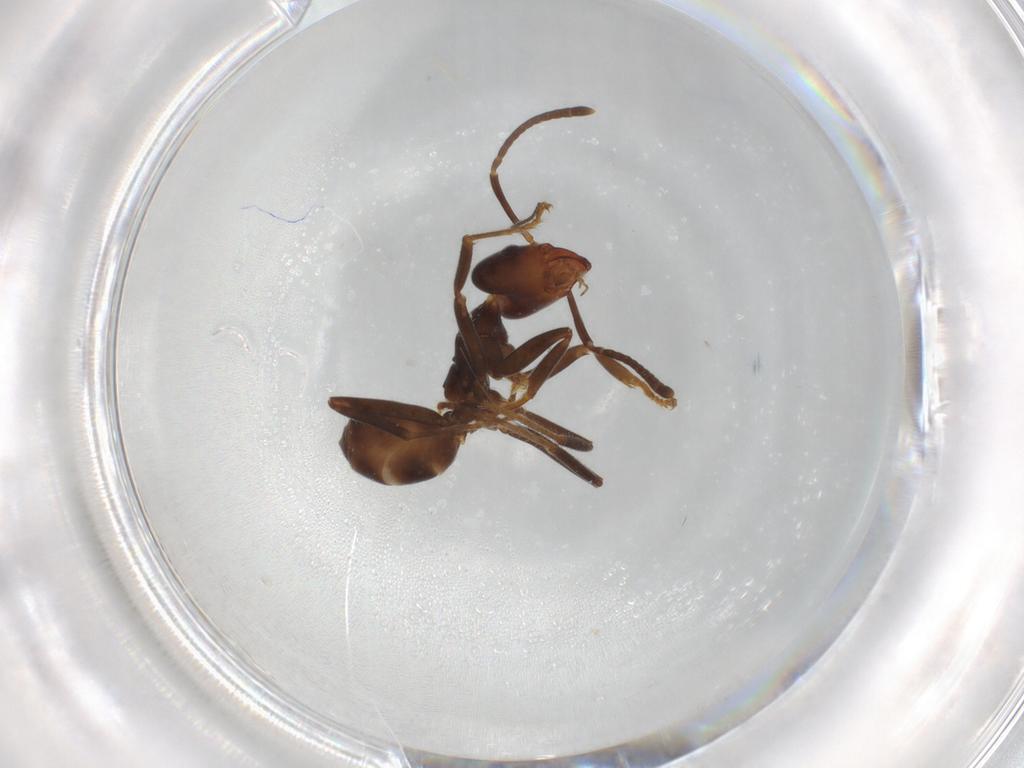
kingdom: Animalia
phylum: Arthropoda
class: Insecta
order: Hymenoptera
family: Formicidae
